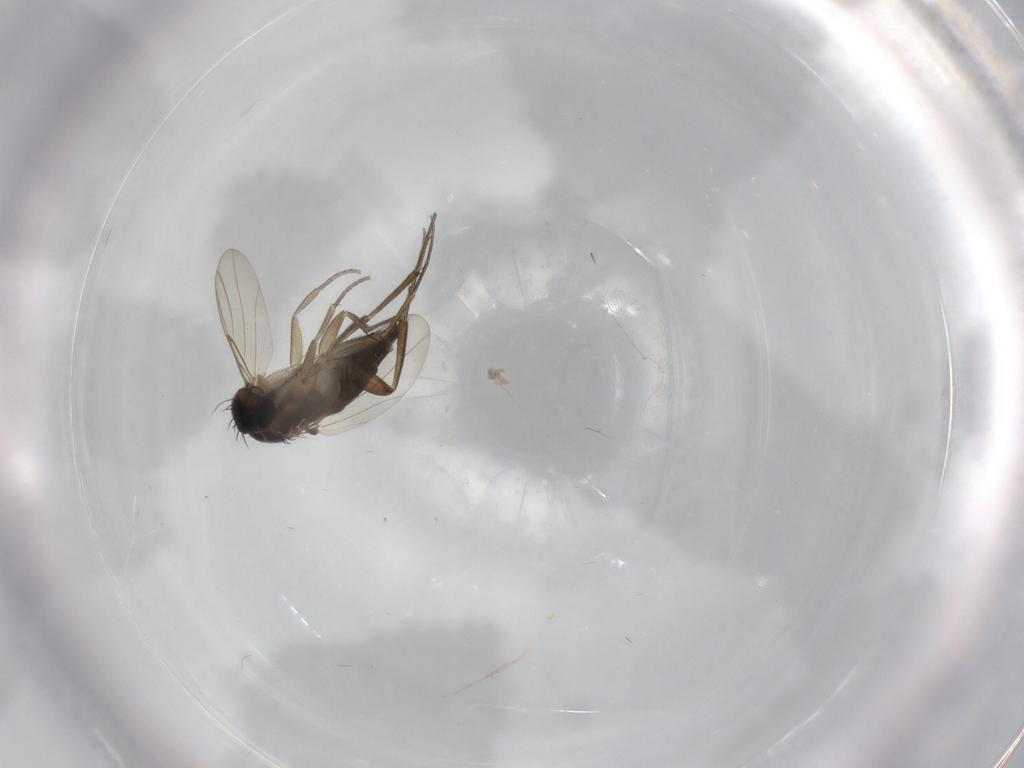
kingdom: Animalia
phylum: Arthropoda
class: Insecta
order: Diptera
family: Phoridae
